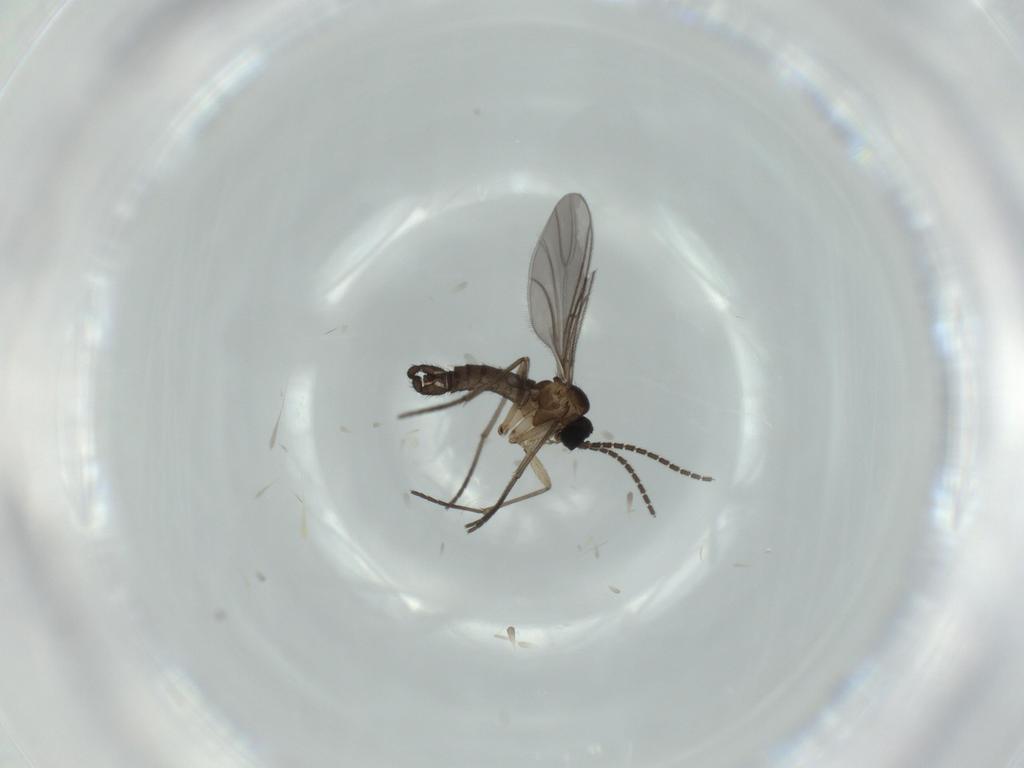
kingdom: Animalia
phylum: Arthropoda
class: Insecta
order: Diptera
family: Sciaridae
